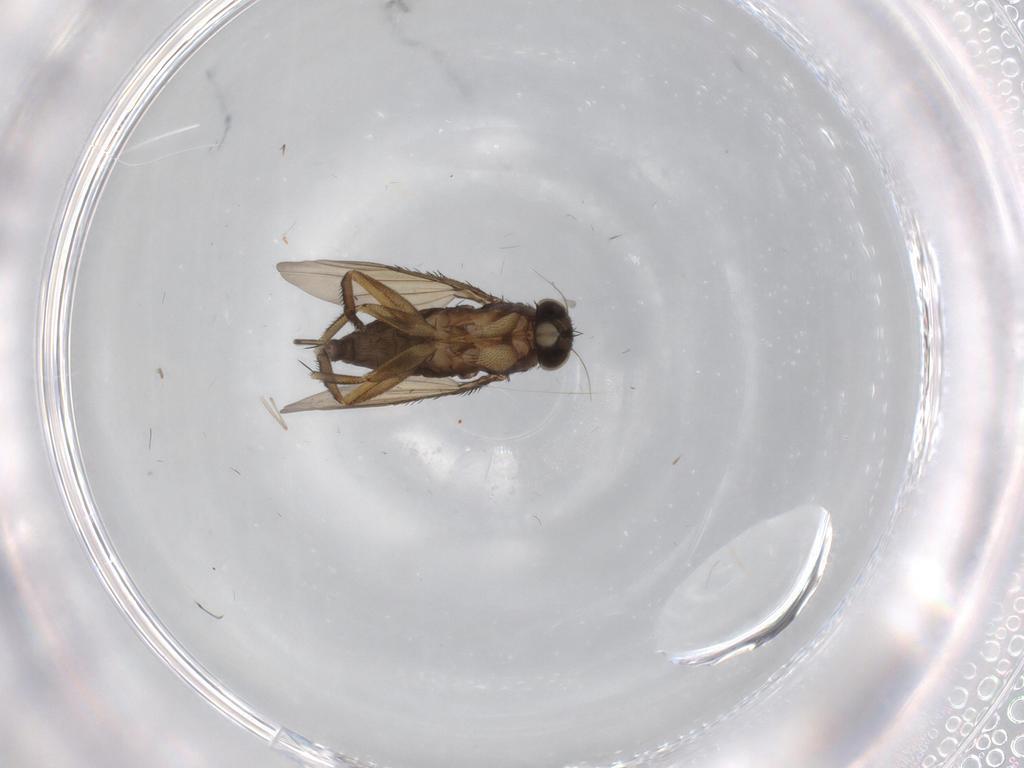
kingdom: Animalia
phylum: Arthropoda
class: Insecta
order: Diptera
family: Phoridae
